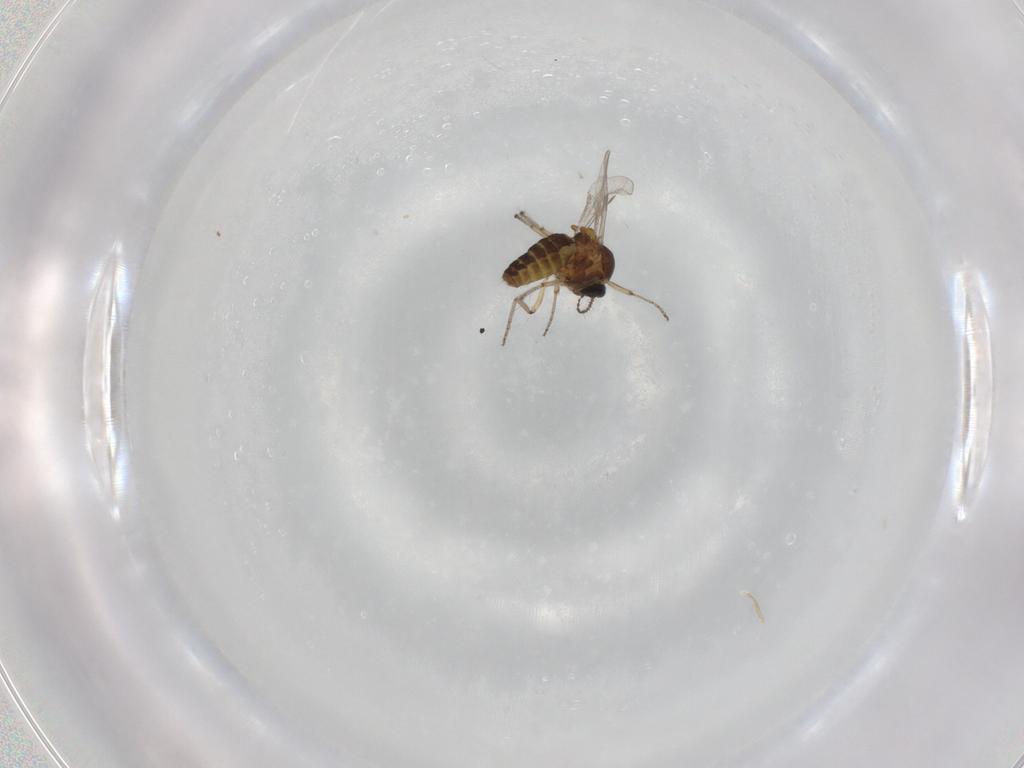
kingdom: Animalia
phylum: Arthropoda
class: Insecta
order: Diptera
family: Ceratopogonidae
